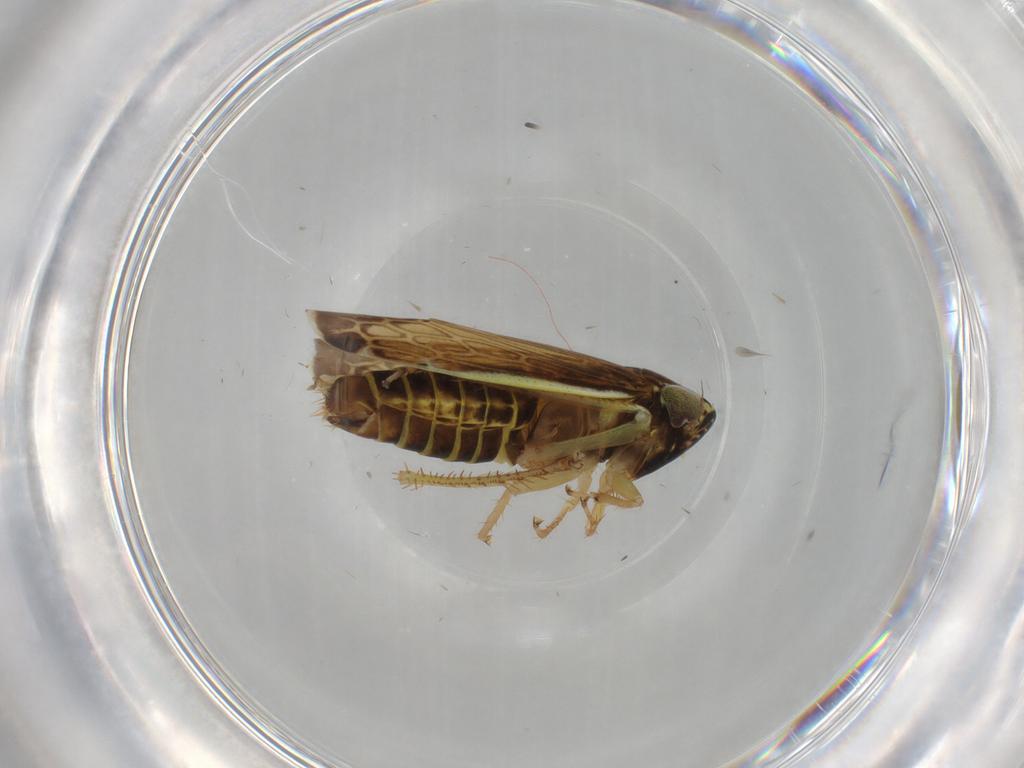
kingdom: Animalia
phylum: Arthropoda
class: Insecta
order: Hemiptera
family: Cicadellidae
